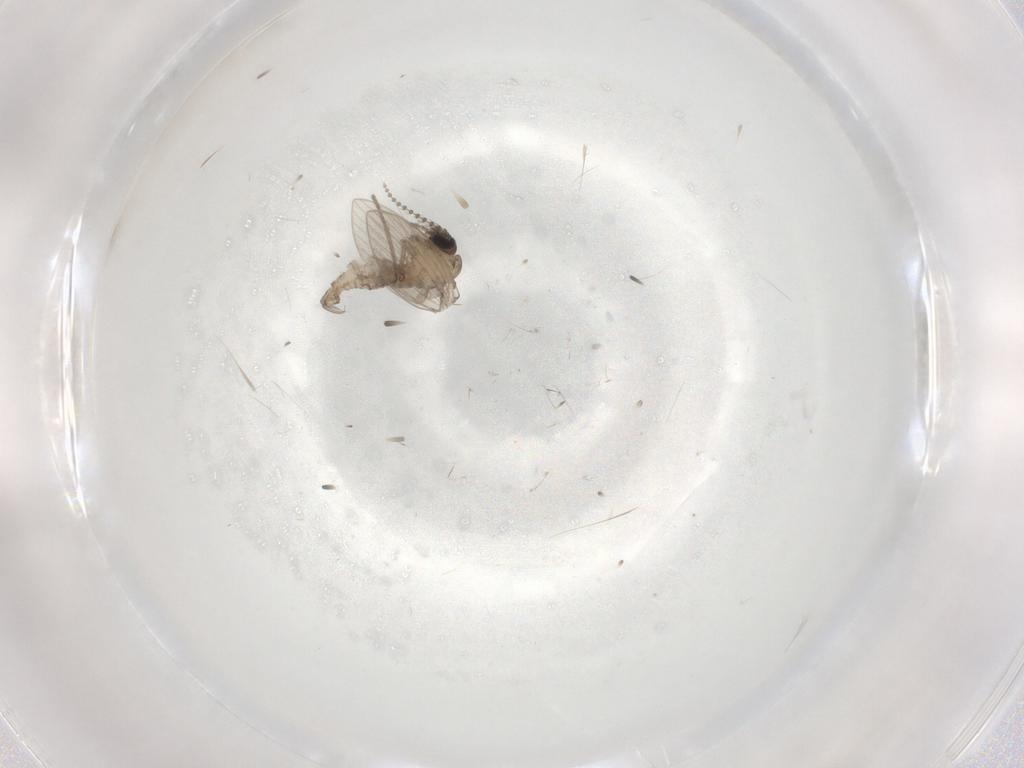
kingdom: Animalia
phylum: Arthropoda
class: Insecta
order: Diptera
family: Psychodidae
